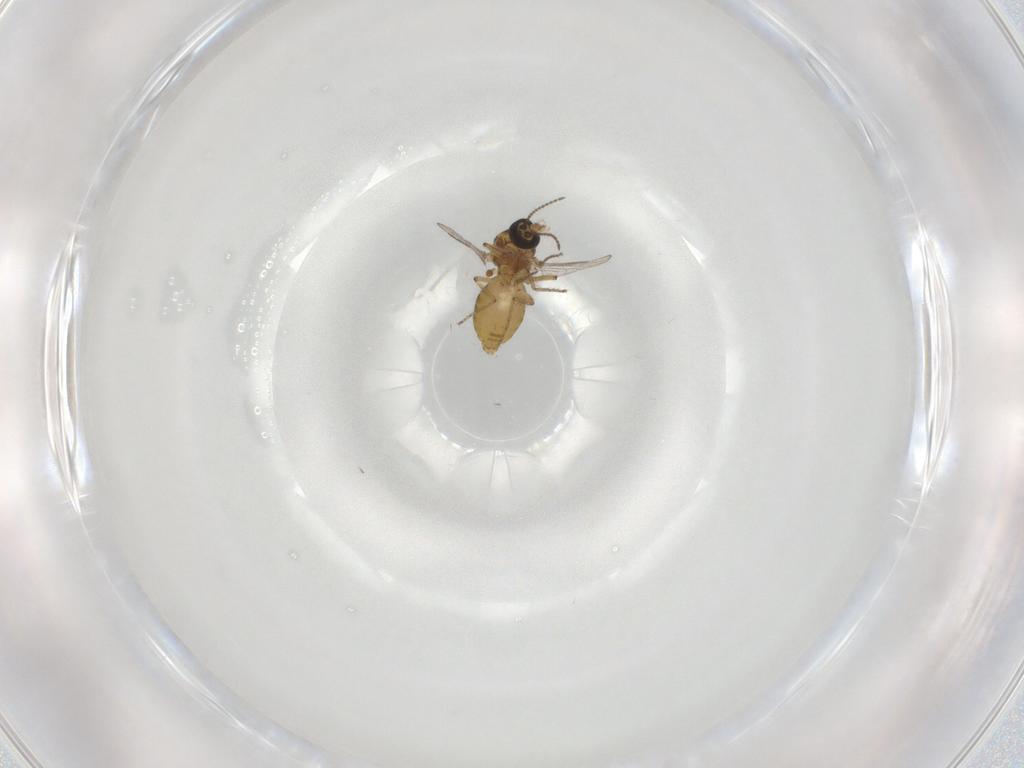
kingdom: Animalia
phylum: Arthropoda
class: Insecta
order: Diptera
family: Ceratopogonidae
